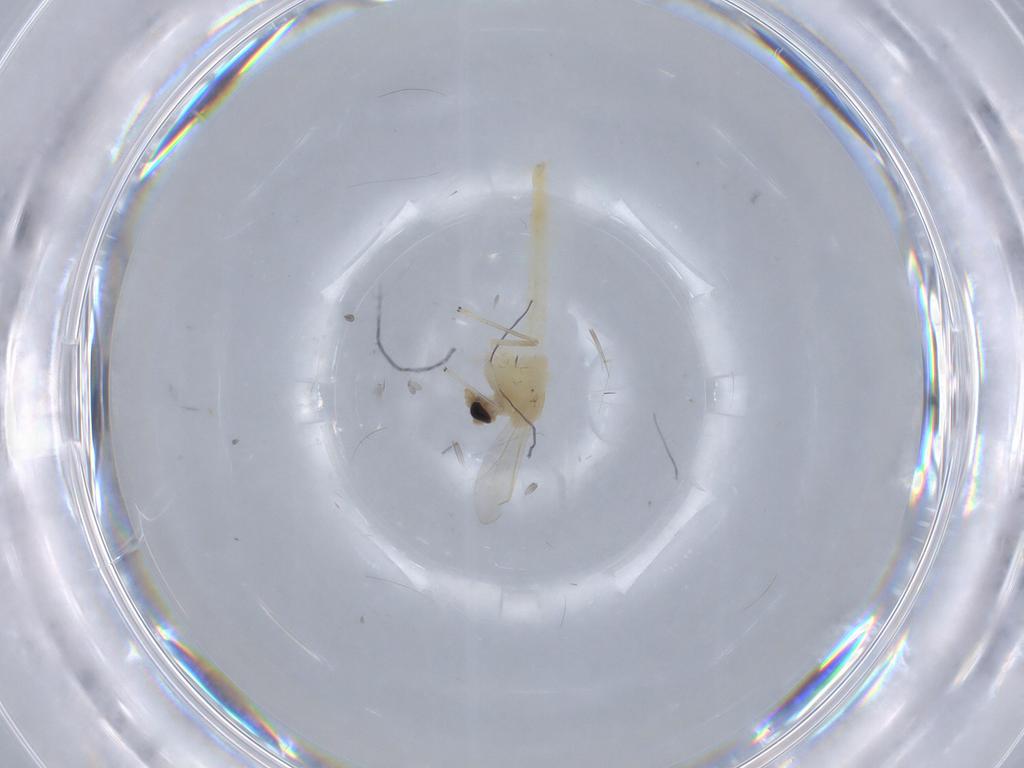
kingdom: Animalia
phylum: Arthropoda
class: Insecta
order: Diptera
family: Chironomidae
